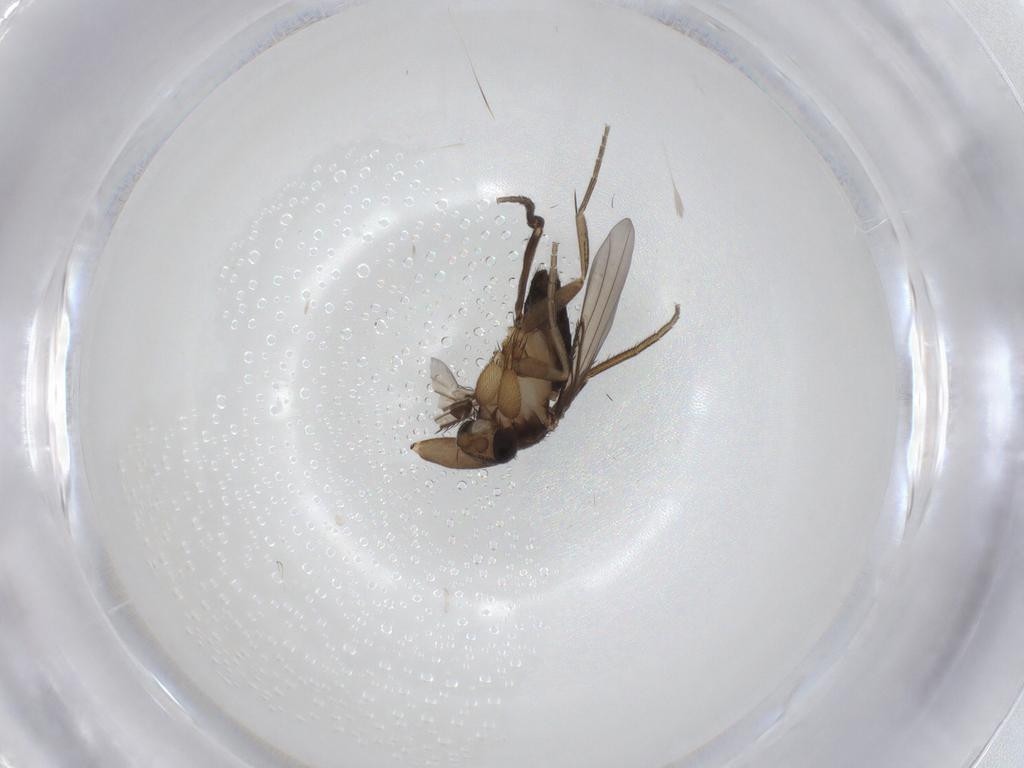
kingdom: Animalia
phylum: Arthropoda
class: Insecta
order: Diptera
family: Phoridae
